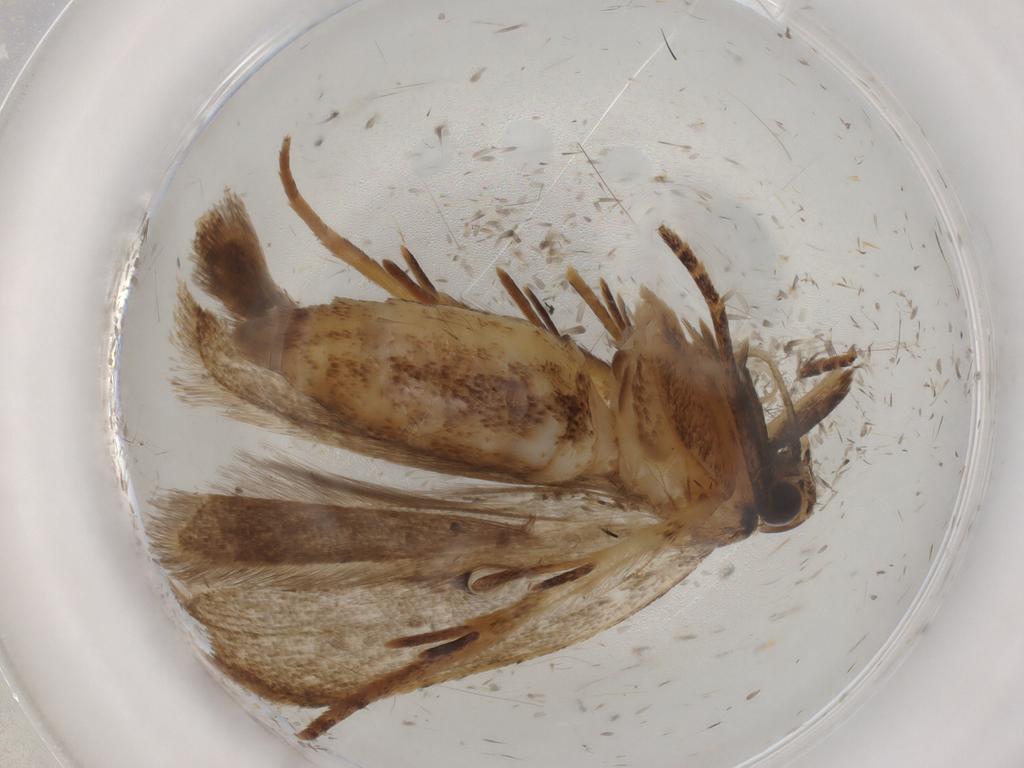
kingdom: Animalia
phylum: Arthropoda
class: Insecta
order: Lepidoptera
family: Gelechiidae
